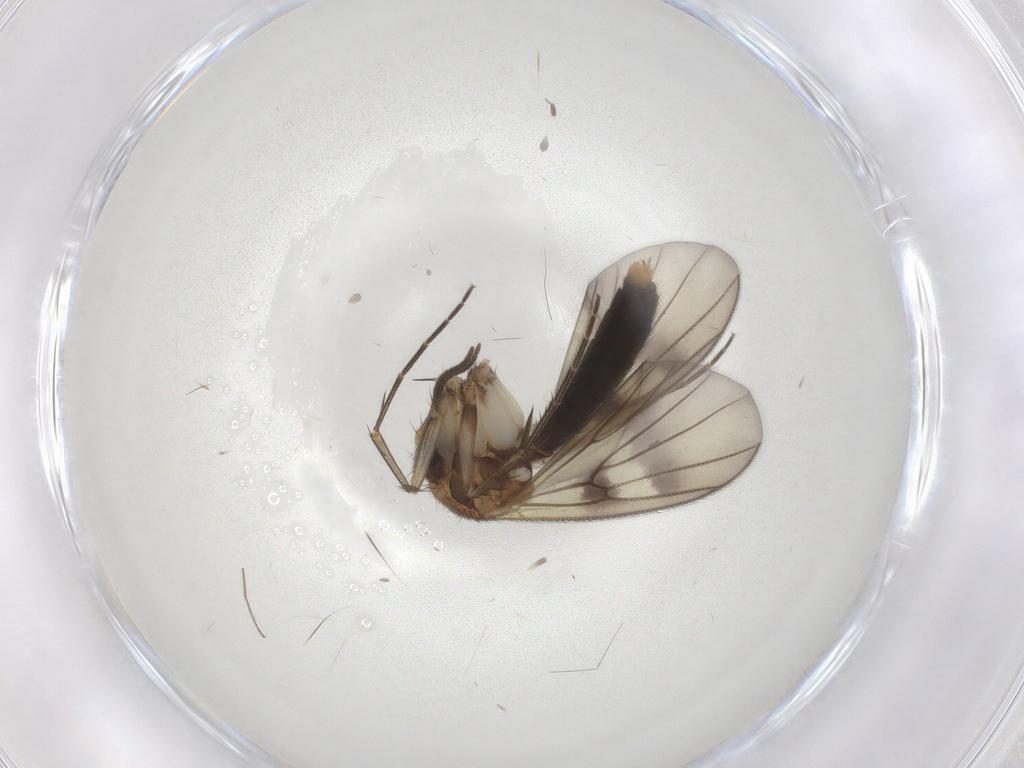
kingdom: Animalia
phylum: Arthropoda
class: Insecta
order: Diptera
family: Mycetophilidae
